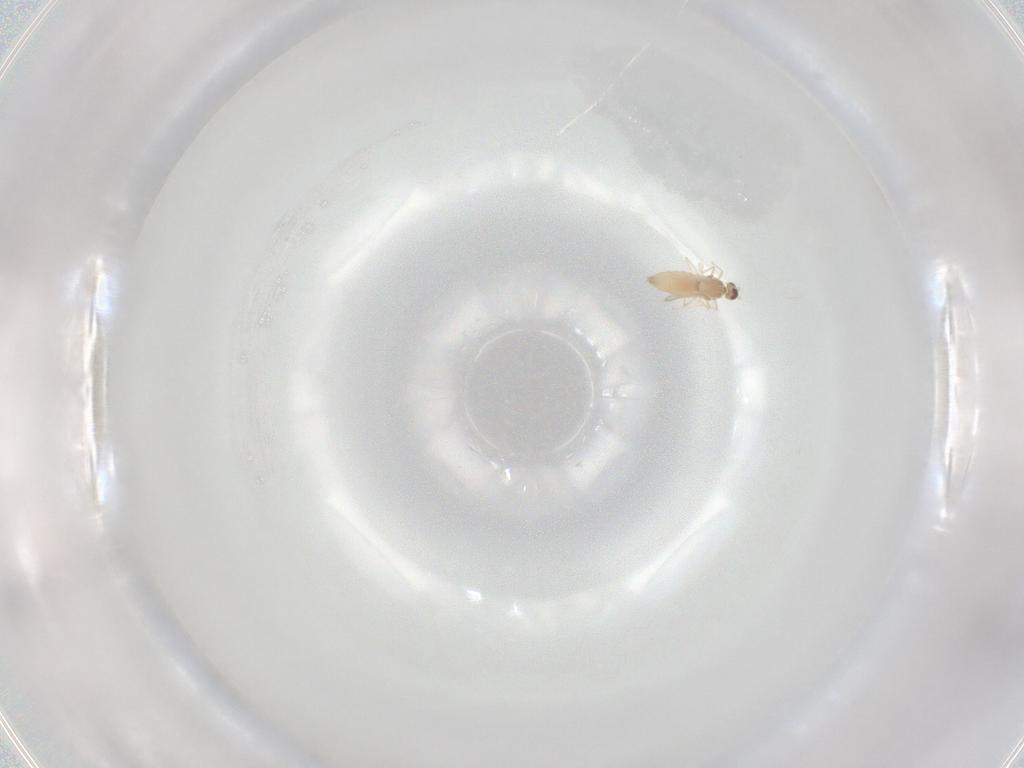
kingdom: Animalia
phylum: Arthropoda
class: Insecta
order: Diptera
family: Cecidomyiidae
